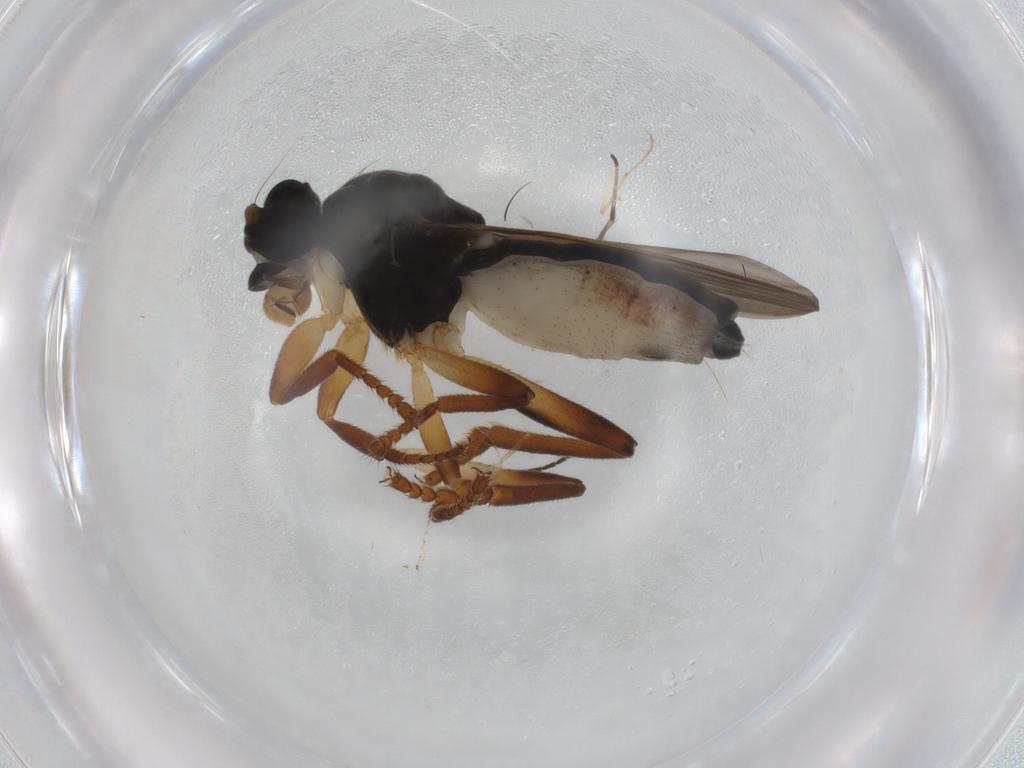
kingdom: Animalia
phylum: Arthropoda
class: Insecta
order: Diptera
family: Sphaeroceridae
